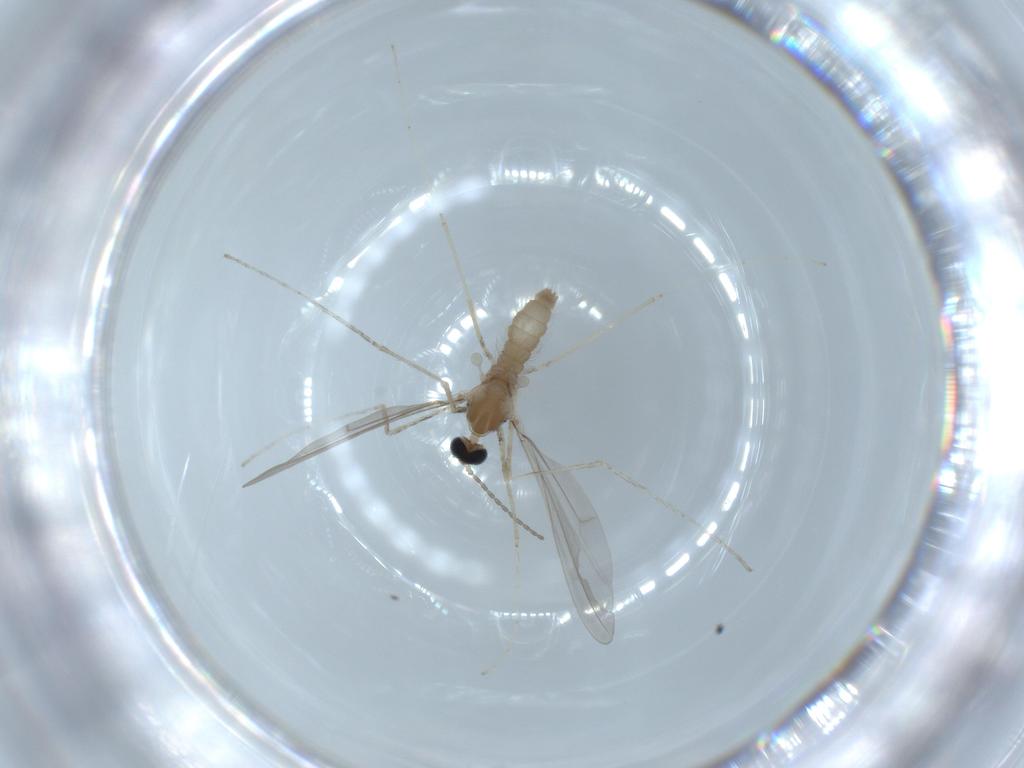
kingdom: Animalia
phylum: Arthropoda
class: Insecta
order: Diptera
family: Cecidomyiidae
